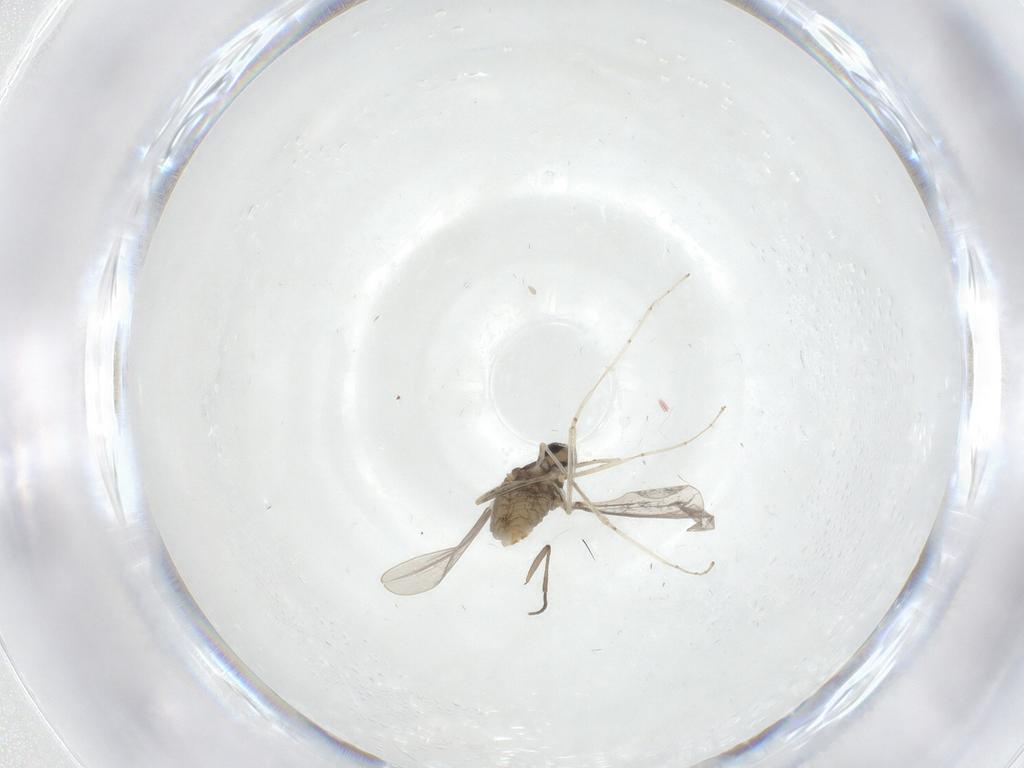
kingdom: Animalia
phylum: Arthropoda
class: Insecta
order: Diptera
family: Cecidomyiidae
